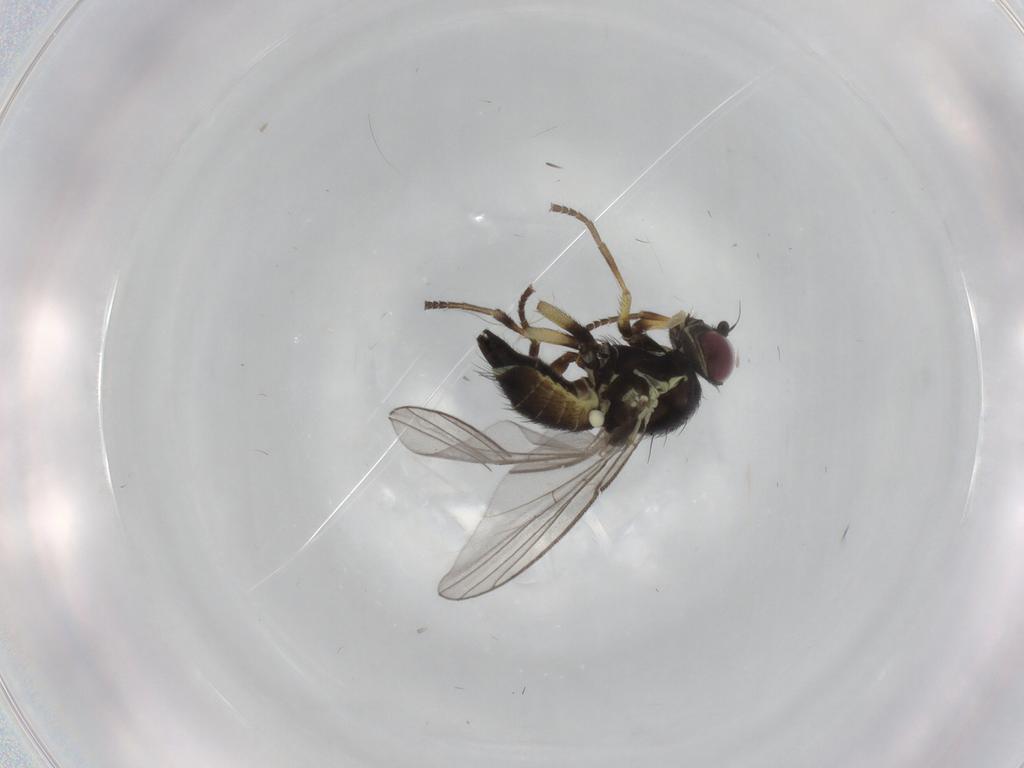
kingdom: Animalia
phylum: Arthropoda
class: Insecta
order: Diptera
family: Agromyzidae
